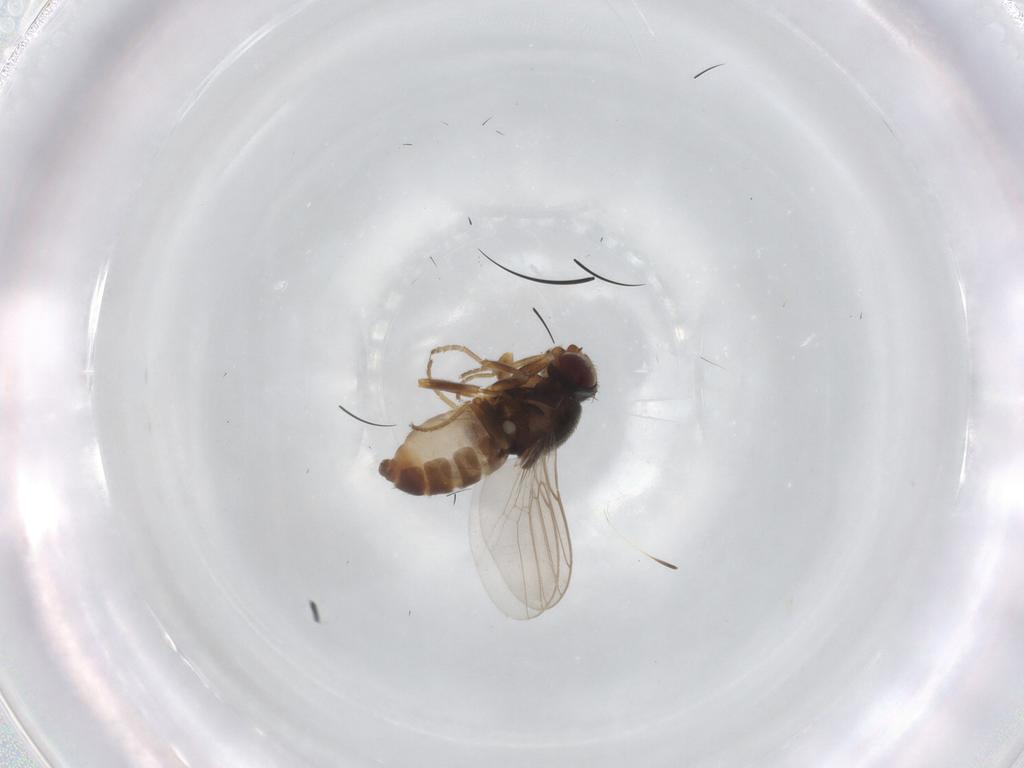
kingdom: Animalia
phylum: Arthropoda
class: Insecta
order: Diptera
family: Chloropidae
